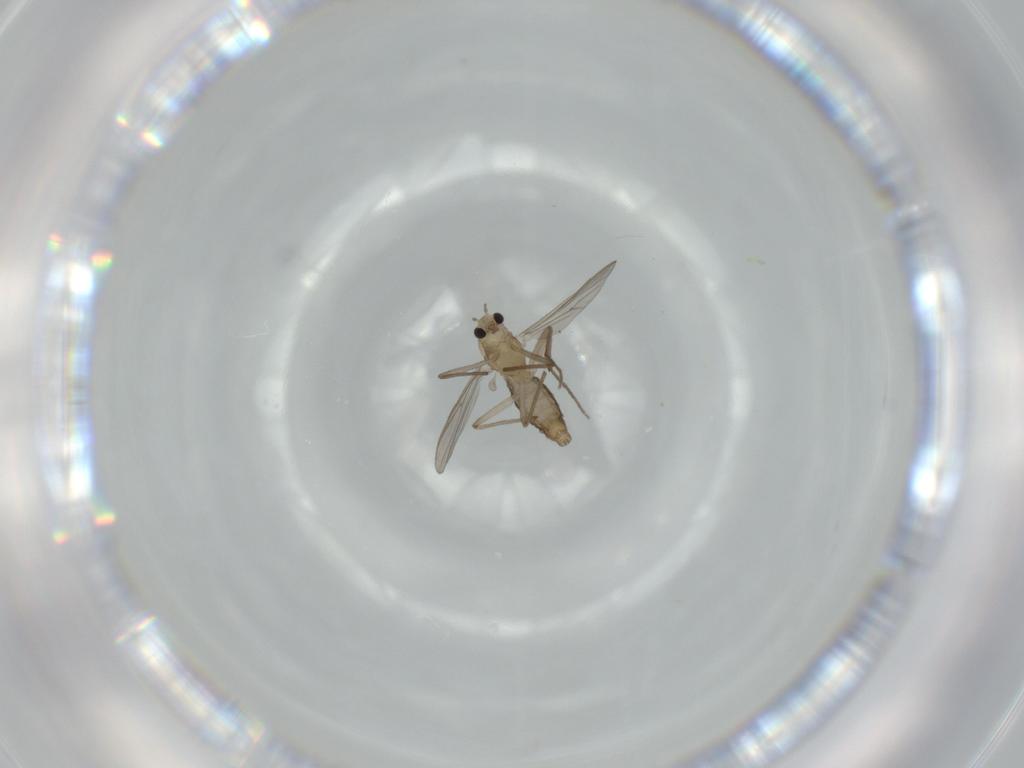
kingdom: Animalia
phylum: Arthropoda
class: Insecta
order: Diptera
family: Chironomidae
